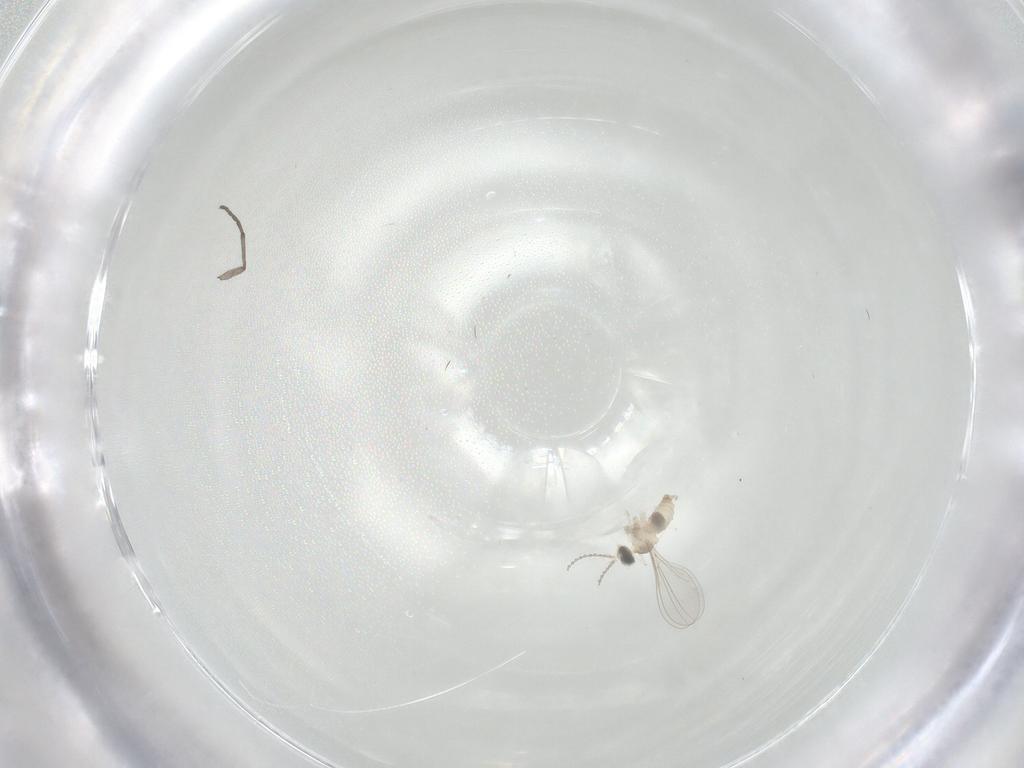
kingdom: Animalia
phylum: Arthropoda
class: Insecta
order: Diptera
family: Sciaridae
